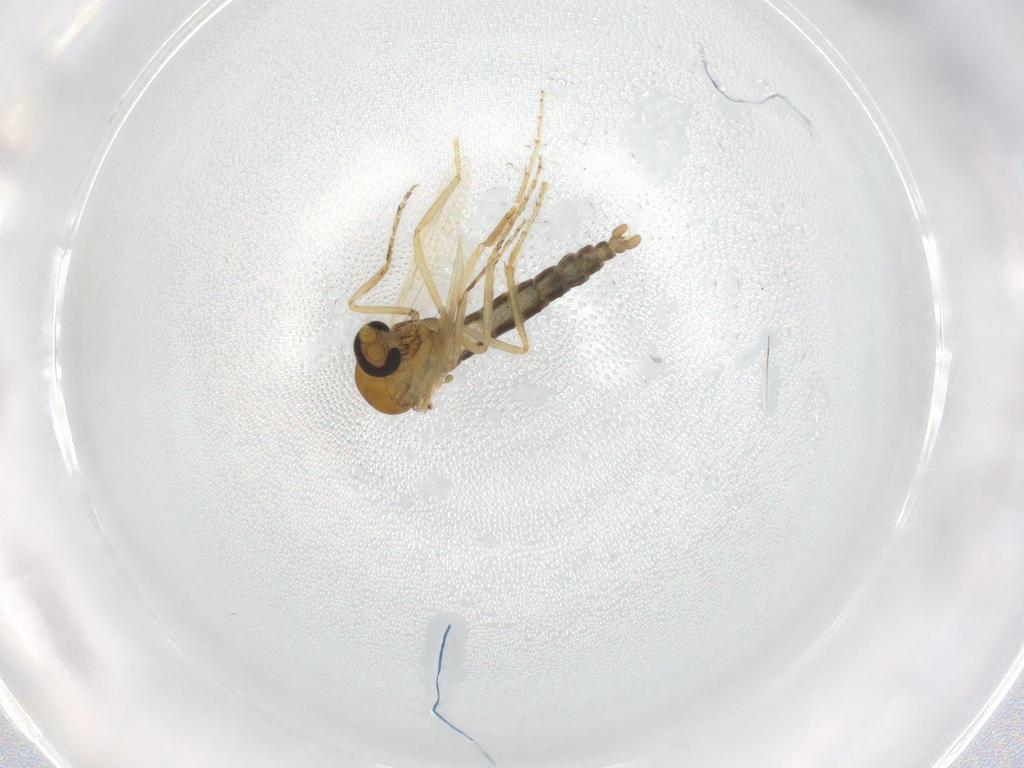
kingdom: Animalia
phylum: Arthropoda
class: Insecta
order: Diptera
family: Ceratopogonidae
